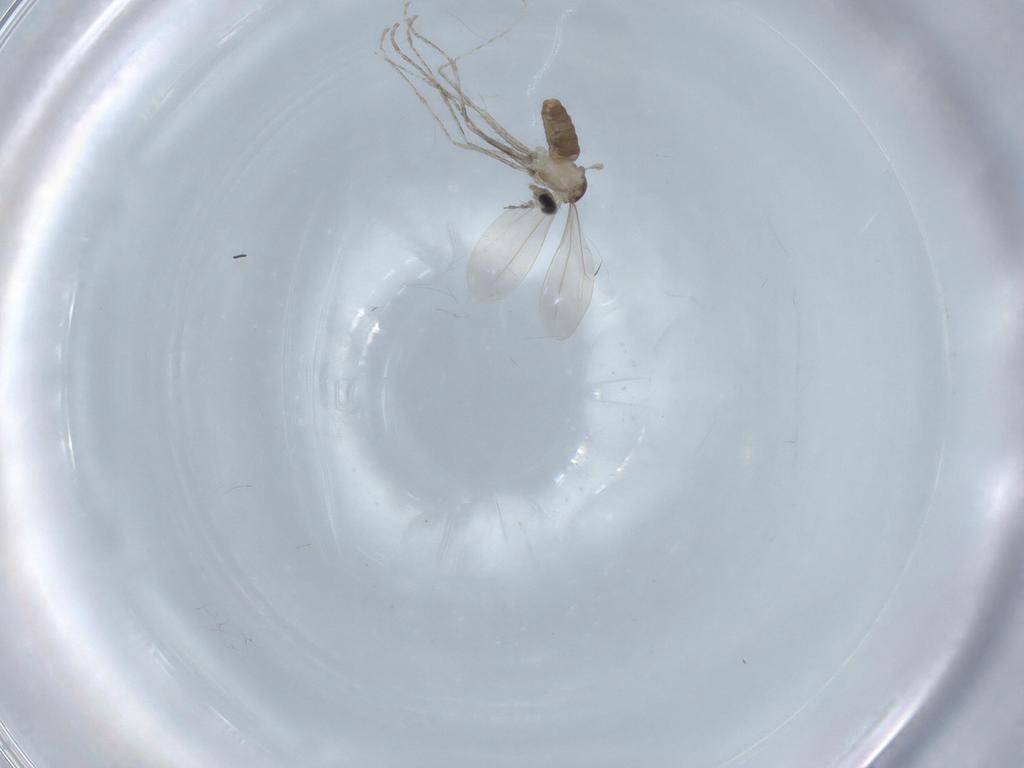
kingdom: Animalia
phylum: Arthropoda
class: Insecta
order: Diptera
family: Cecidomyiidae
